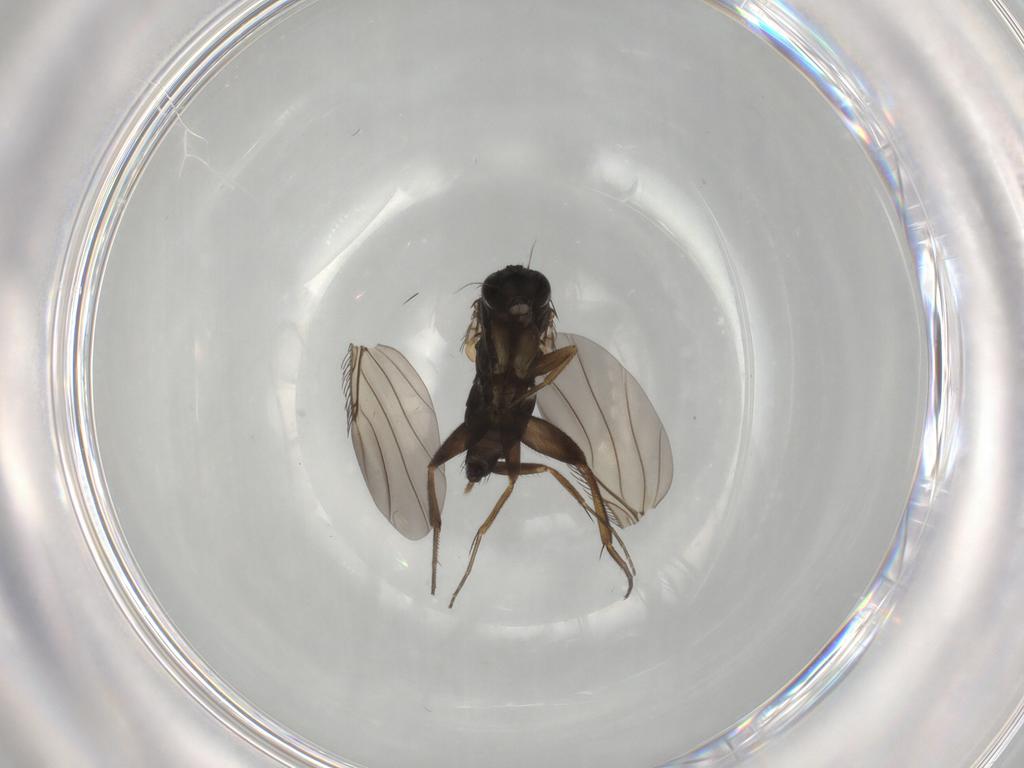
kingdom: Animalia
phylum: Arthropoda
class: Insecta
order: Diptera
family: Phoridae
